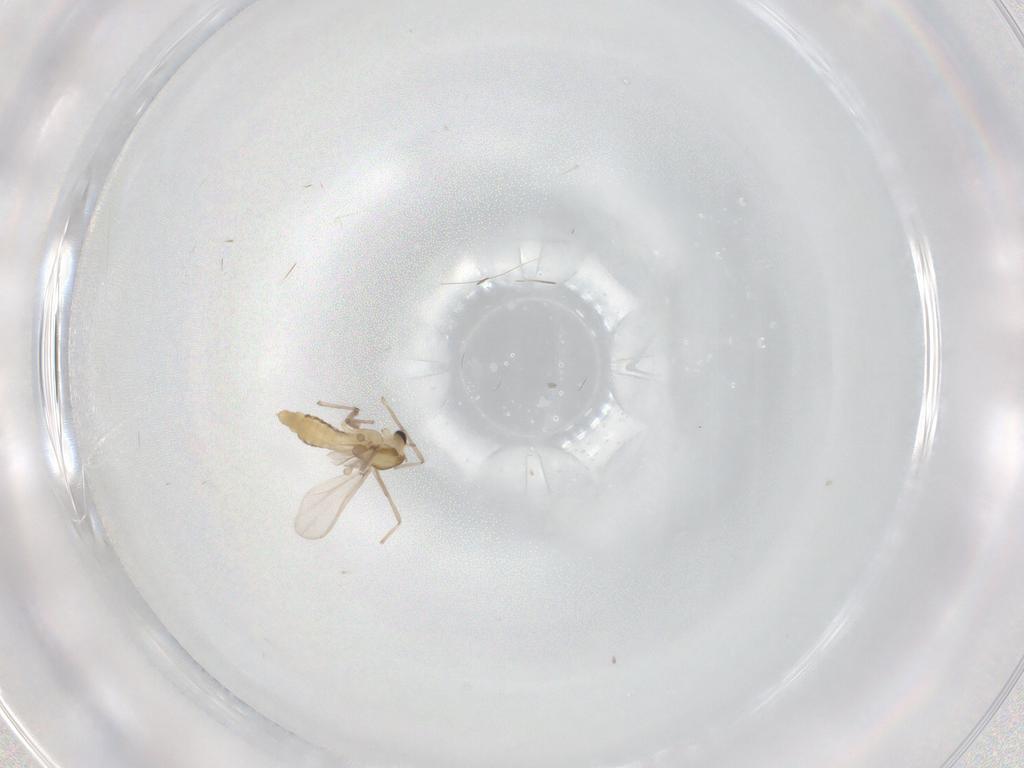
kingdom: Animalia
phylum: Arthropoda
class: Insecta
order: Diptera
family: Chironomidae
